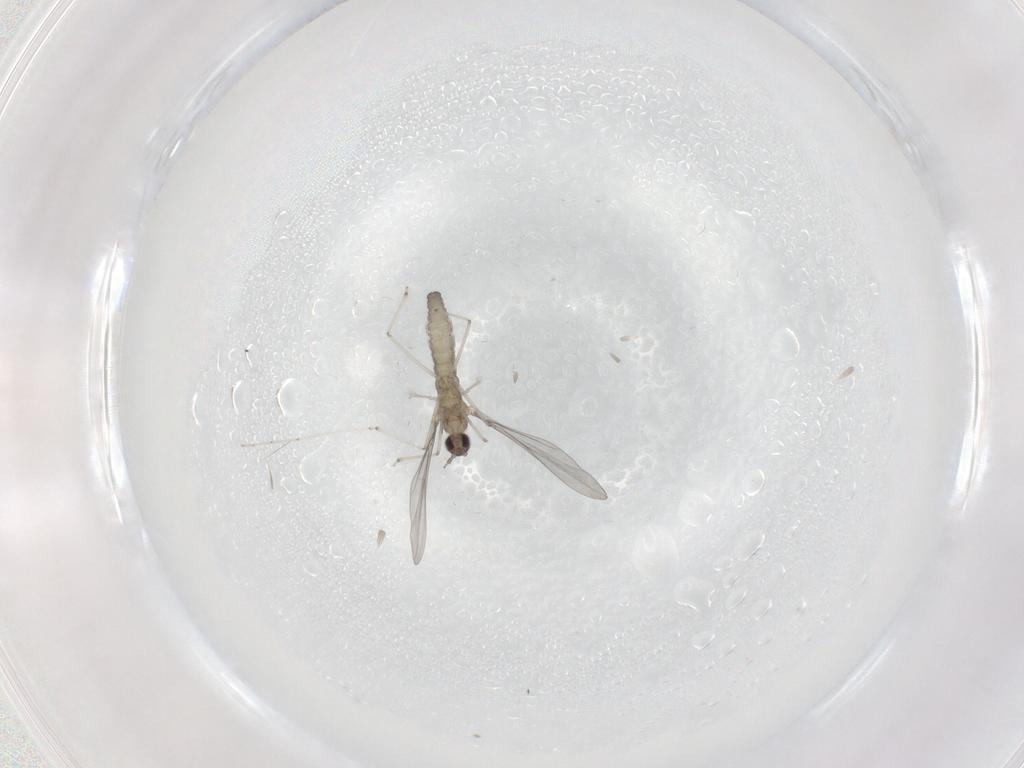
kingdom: Animalia
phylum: Arthropoda
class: Insecta
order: Diptera
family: Cecidomyiidae
